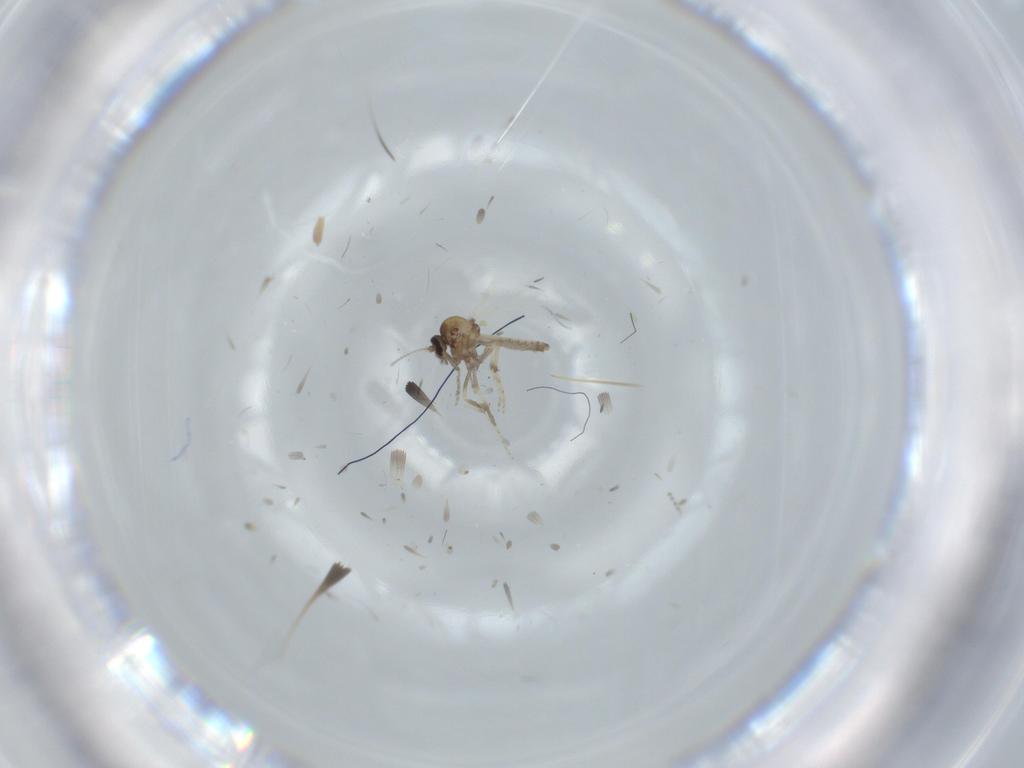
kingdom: Animalia
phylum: Arthropoda
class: Insecta
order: Diptera
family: Ceratopogonidae
